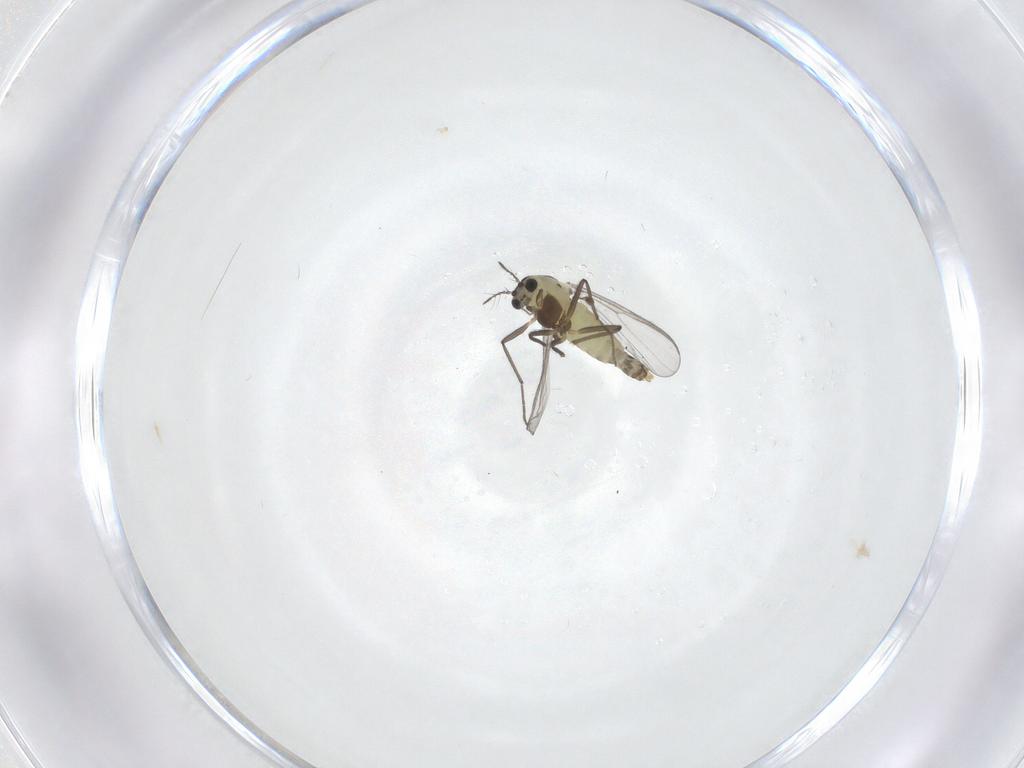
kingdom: Animalia
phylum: Arthropoda
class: Insecta
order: Diptera
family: Chironomidae
